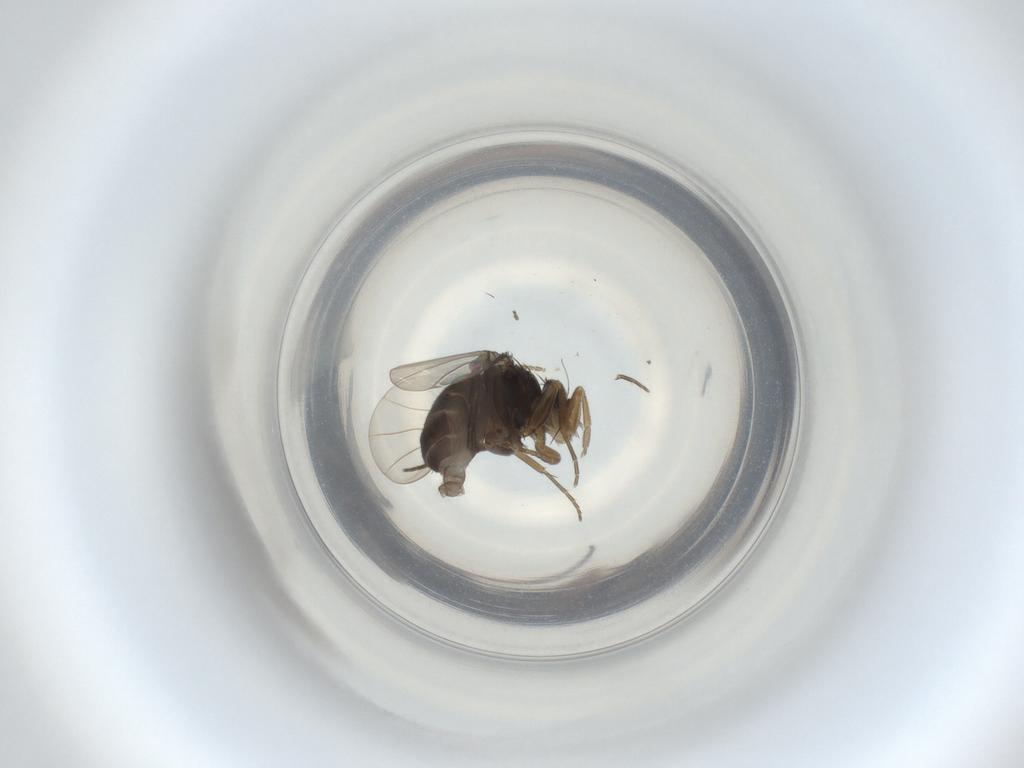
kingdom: Animalia
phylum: Arthropoda
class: Insecta
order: Diptera
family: Phoridae
